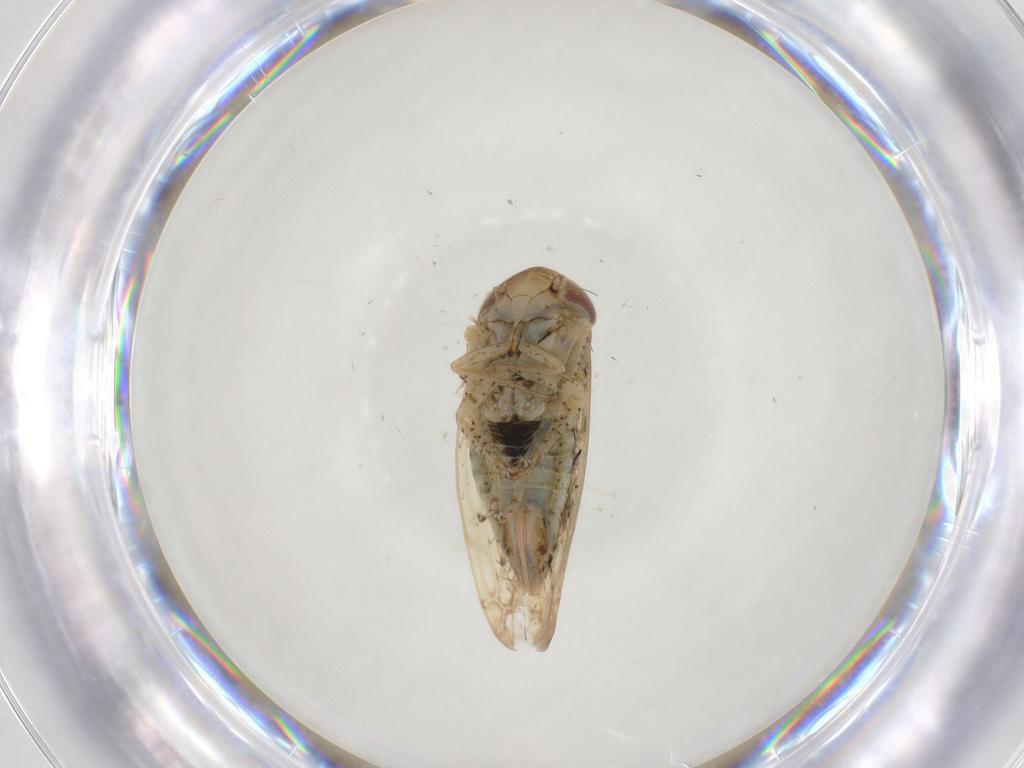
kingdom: Animalia
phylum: Arthropoda
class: Insecta
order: Hemiptera
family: Cicadellidae
